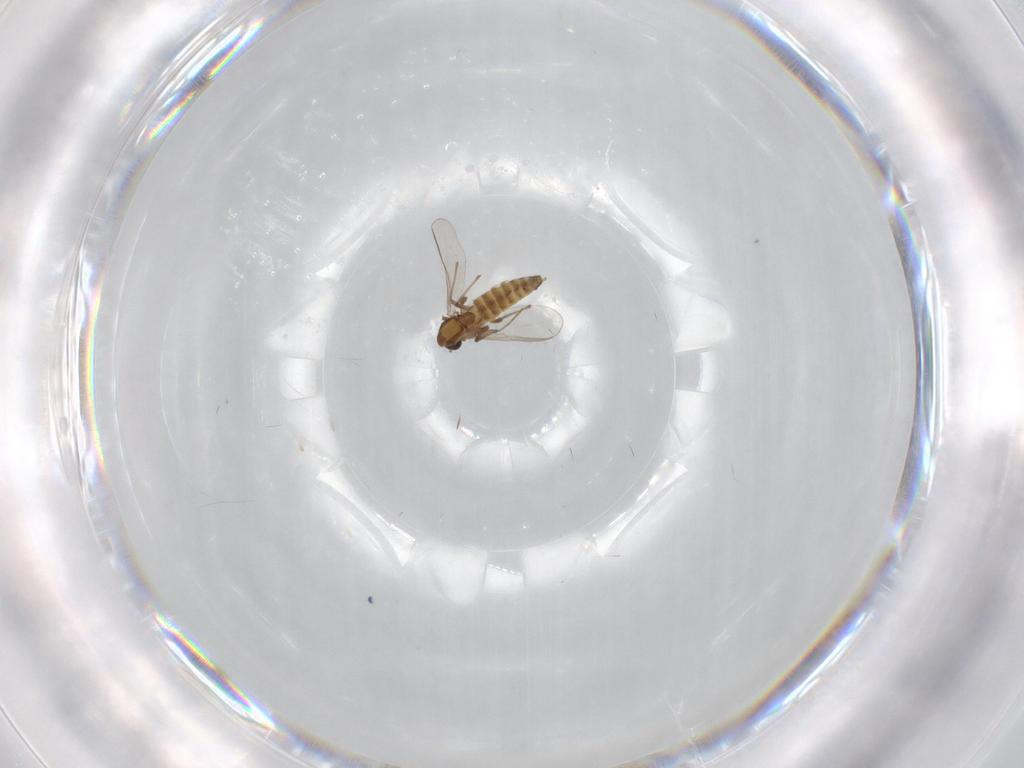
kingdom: Animalia
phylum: Arthropoda
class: Insecta
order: Diptera
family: Chironomidae
